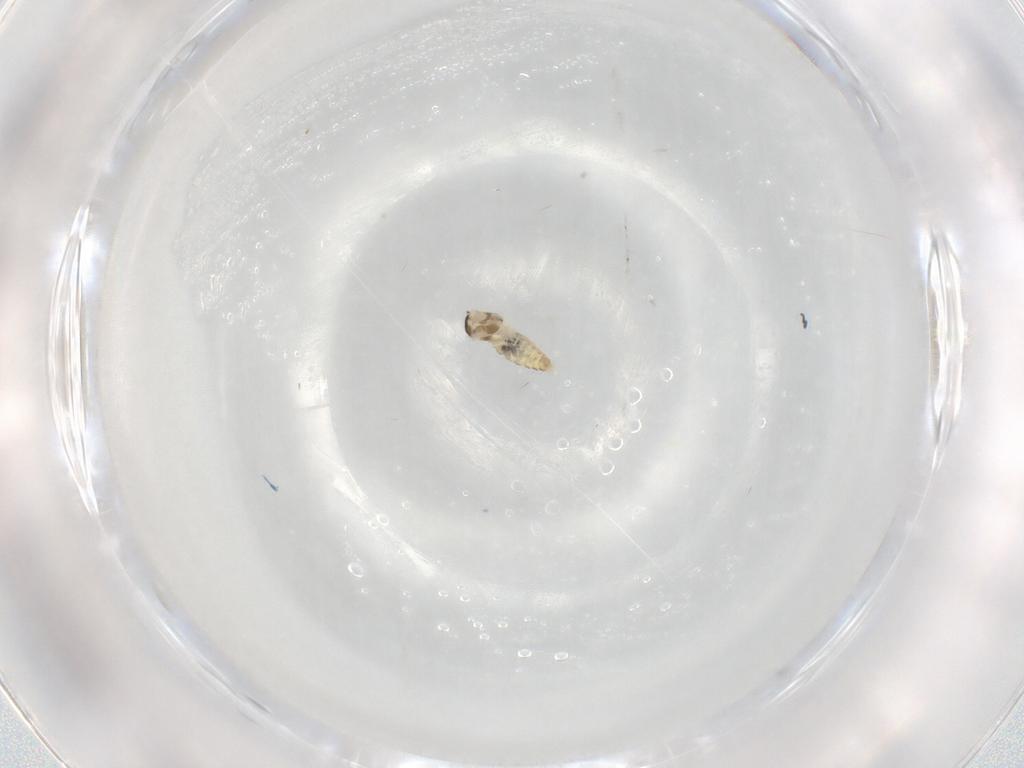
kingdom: Animalia
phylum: Arthropoda
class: Insecta
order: Diptera
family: Cecidomyiidae
